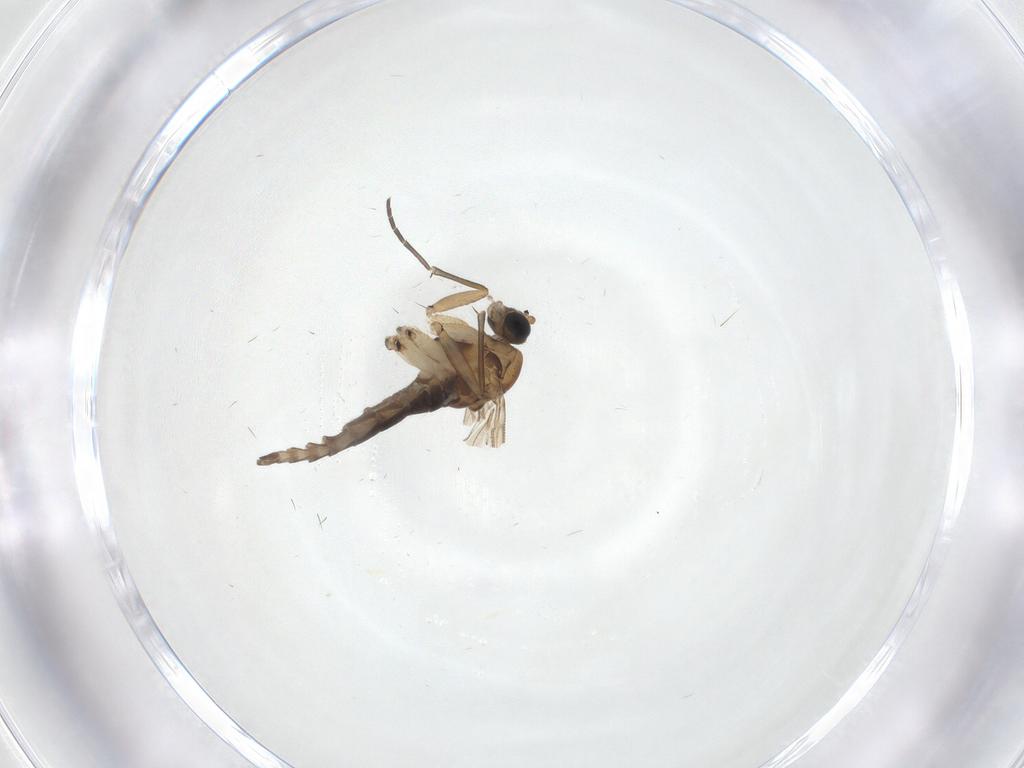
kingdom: Animalia
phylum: Arthropoda
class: Insecta
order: Diptera
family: Sciaridae
